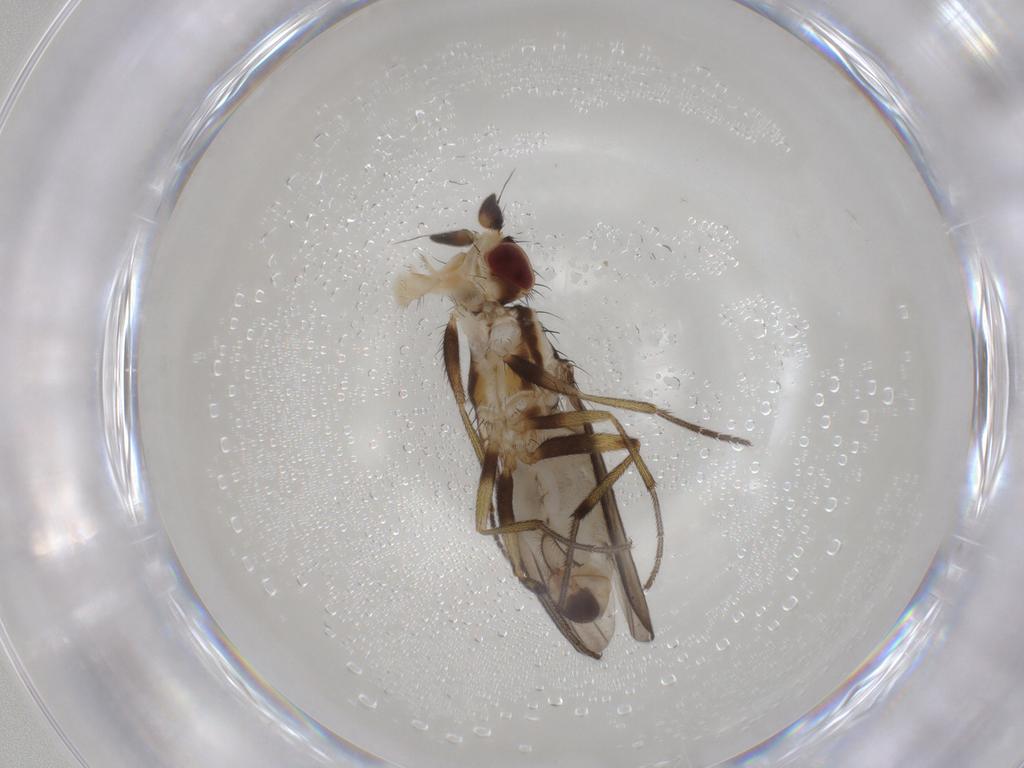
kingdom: Animalia
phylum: Arthropoda
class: Insecta
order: Diptera
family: Cypselosomatidae
